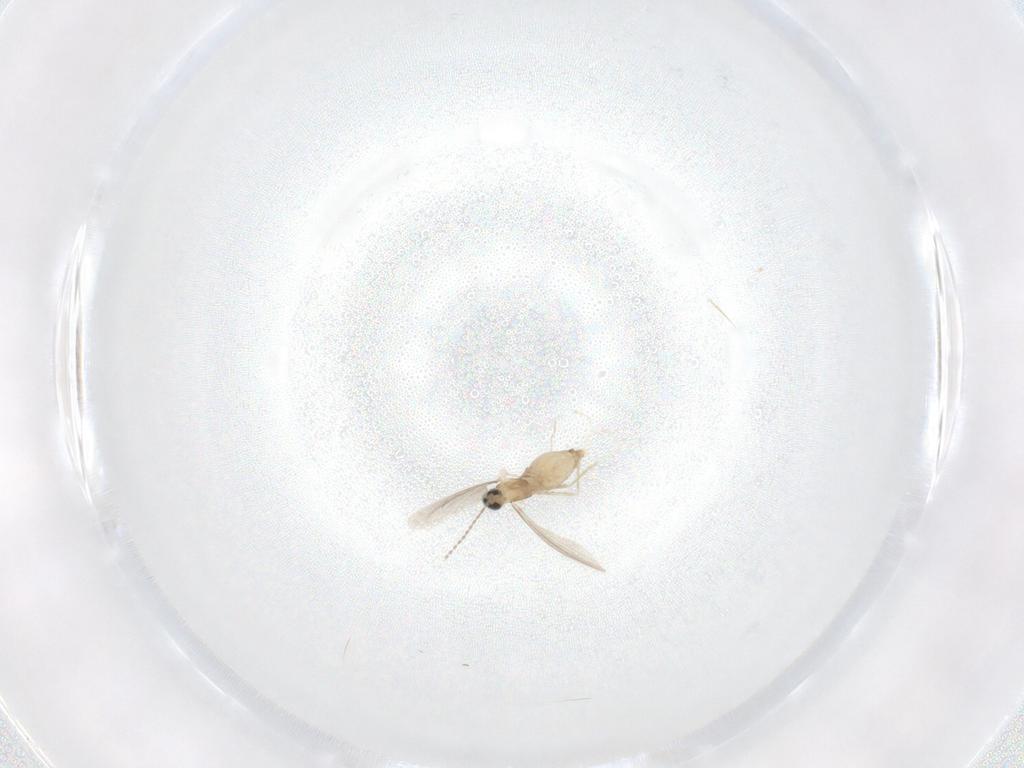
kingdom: Animalia
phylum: Arthropoda
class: Insecta
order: Diptera
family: Cecidomyiidae
